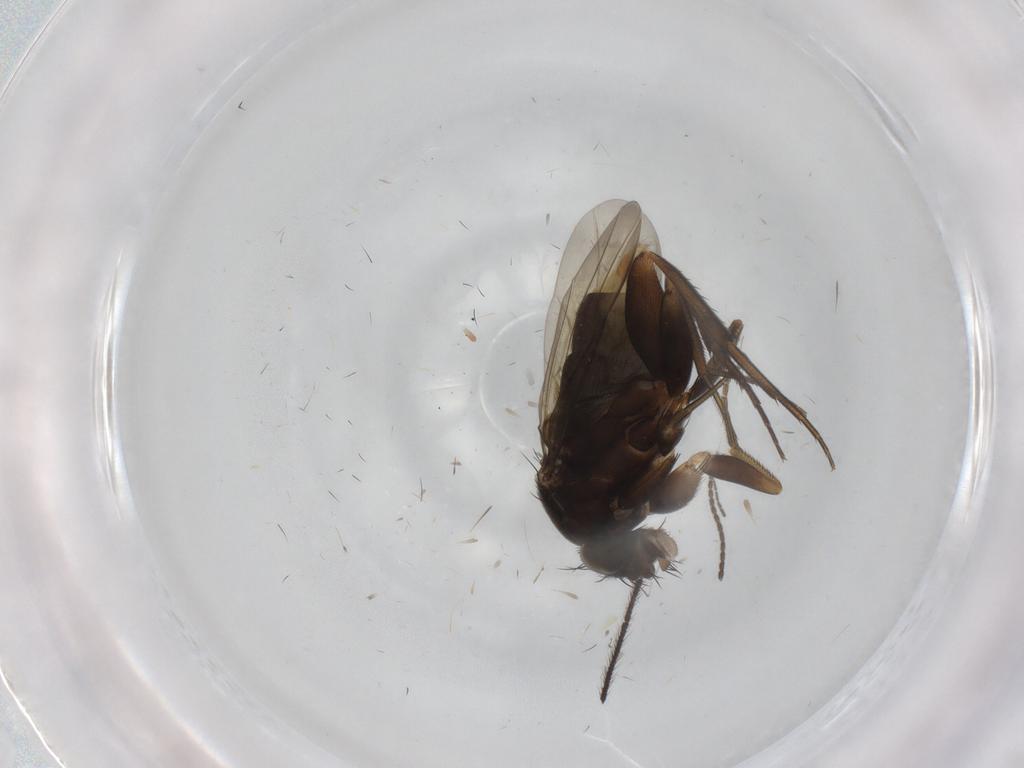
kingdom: Animalia
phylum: Arthropoda
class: Insecta
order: Diptera
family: Phoridae
